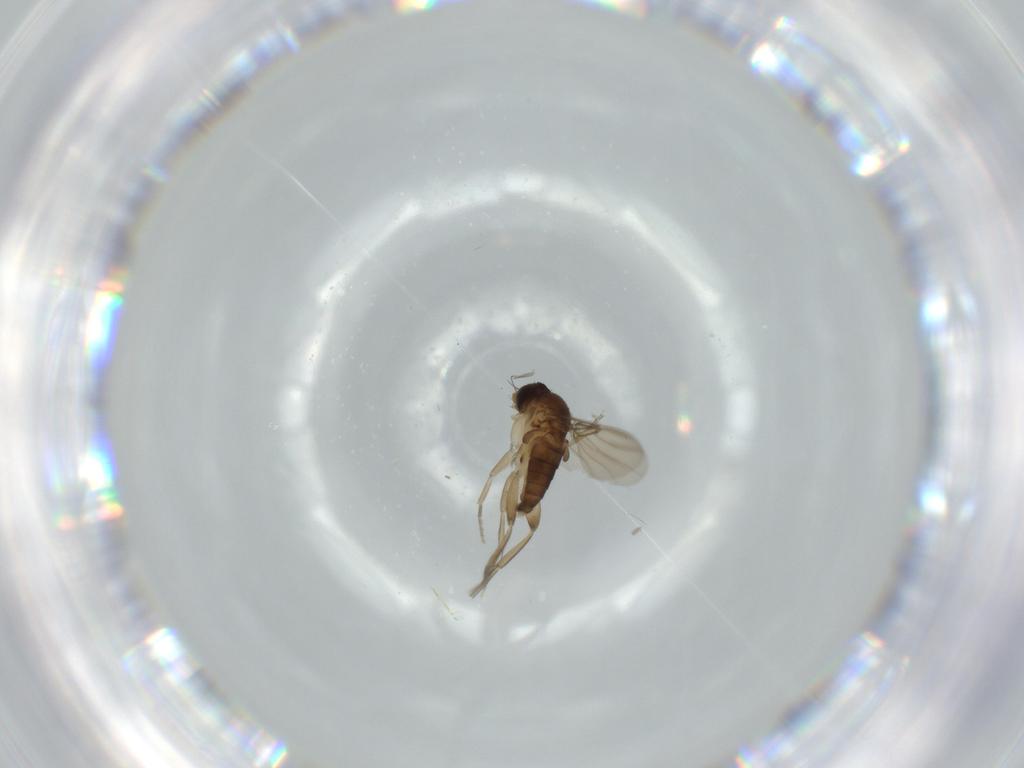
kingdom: Animalia
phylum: Arthropoda
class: Insecta
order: Diptera
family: Phoridae
